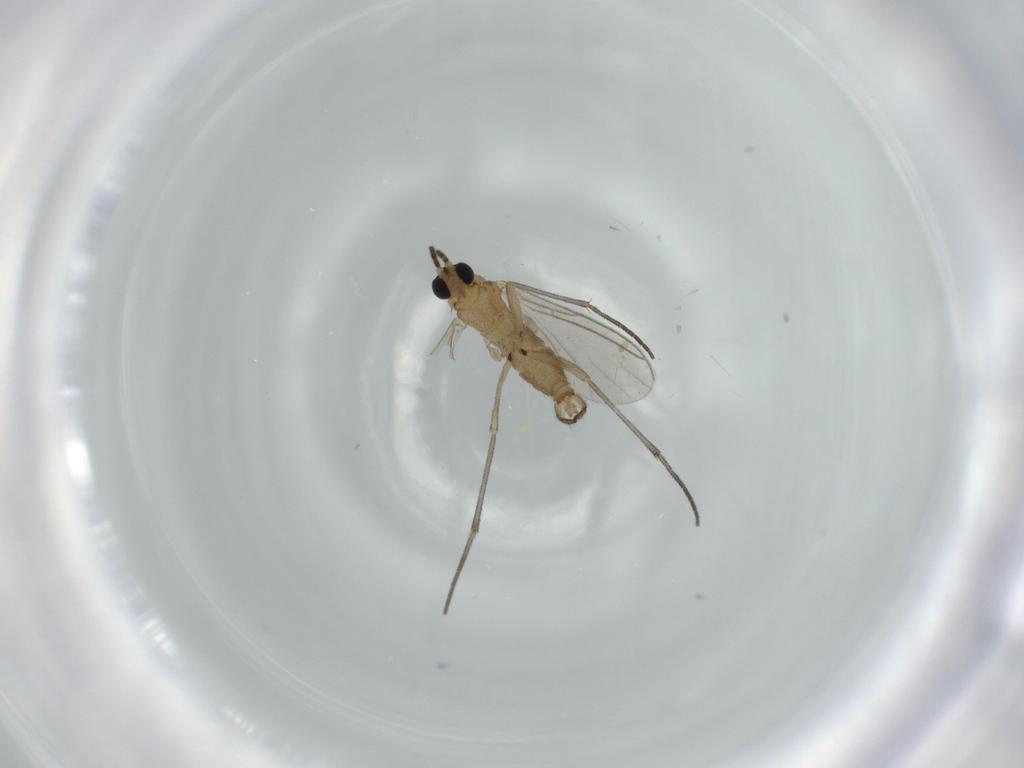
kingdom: Animalia
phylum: Arthropoda
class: Insecta
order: Diptera
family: Sciaridae
